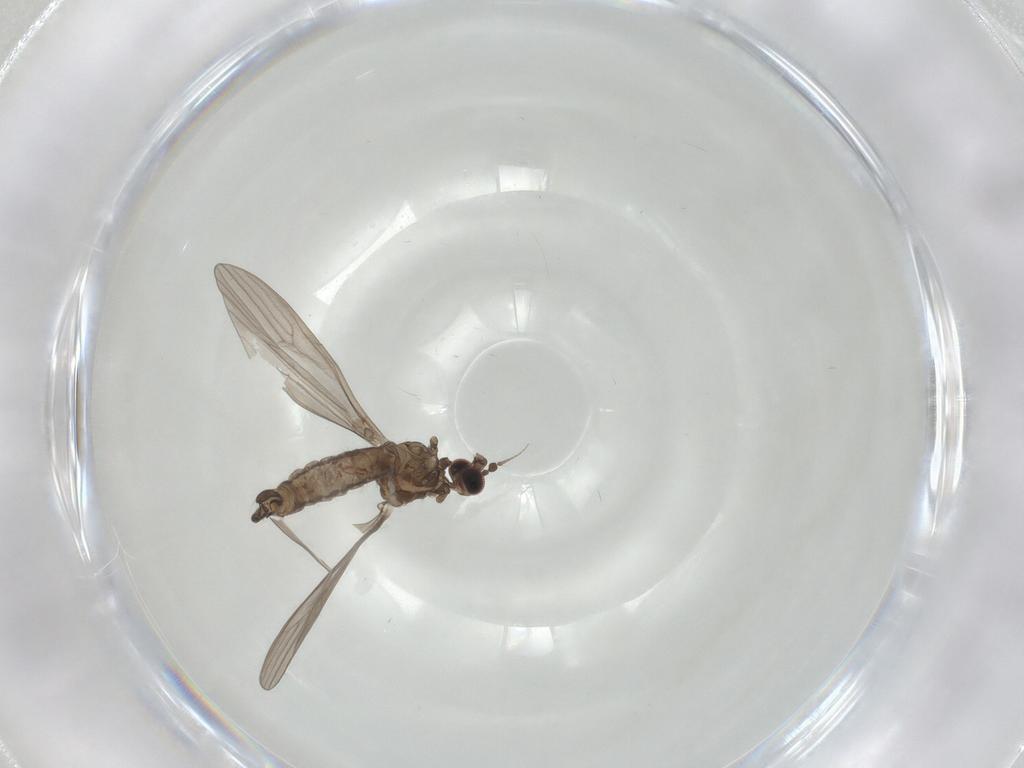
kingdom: Animalia
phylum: Arthropoda
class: Insecta
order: Diptera
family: Limoniidae
